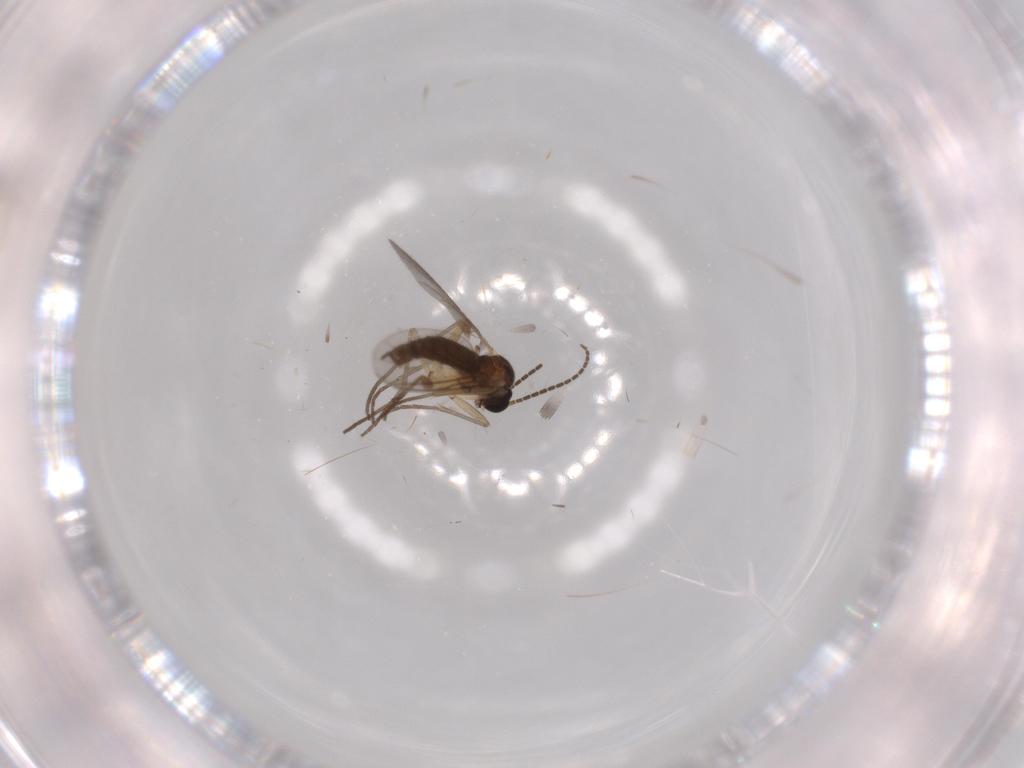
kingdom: Animalia
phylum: Arthropoda
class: Insecta
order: Diptera
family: Sciaridae
